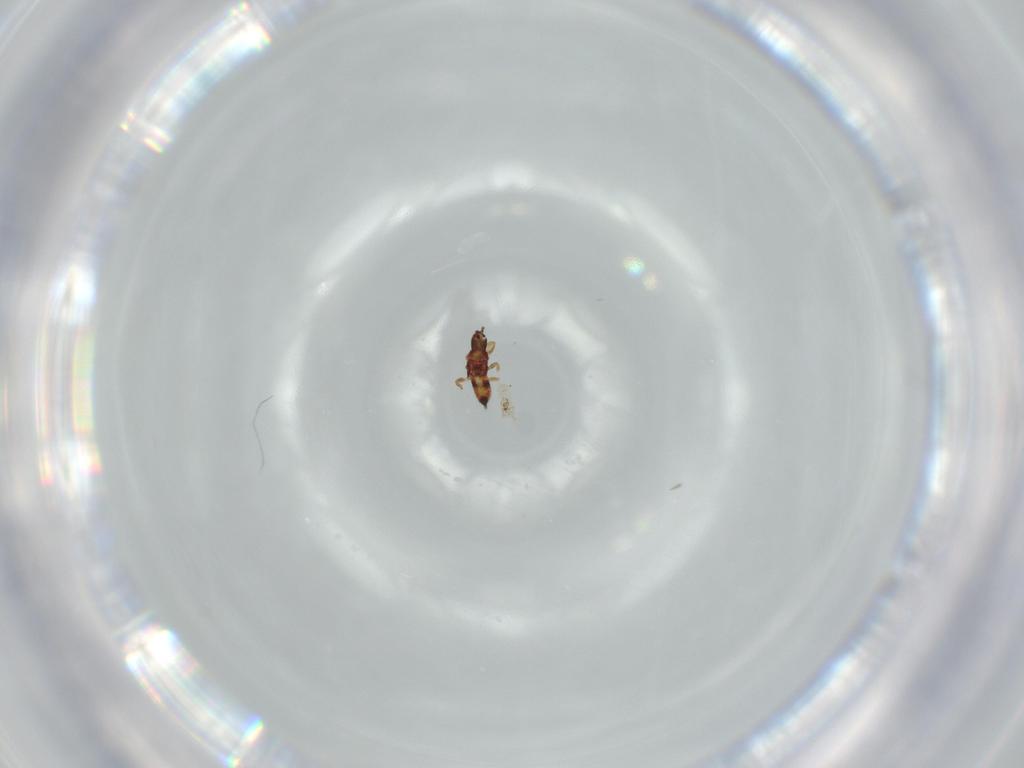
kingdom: Animalia
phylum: Arthropoda
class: Insecta
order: Thysanoptera
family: Phlaeothripidae
